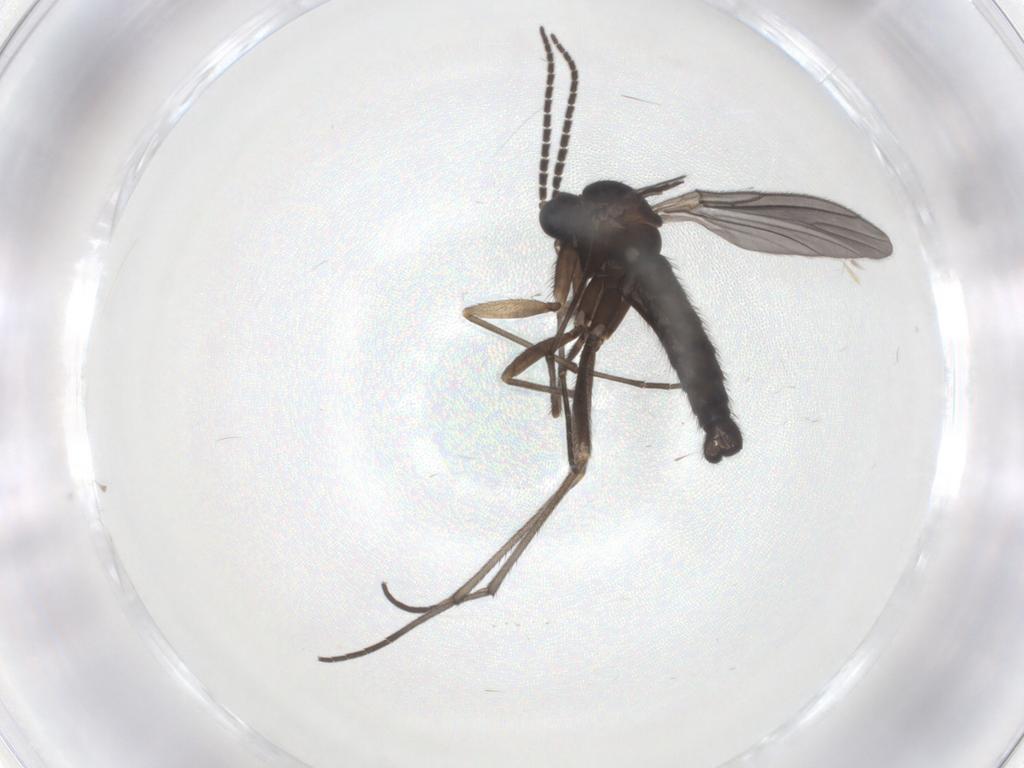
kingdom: Animalia
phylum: Arthropoda
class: Insecta
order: Diptera
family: Sciaridae
